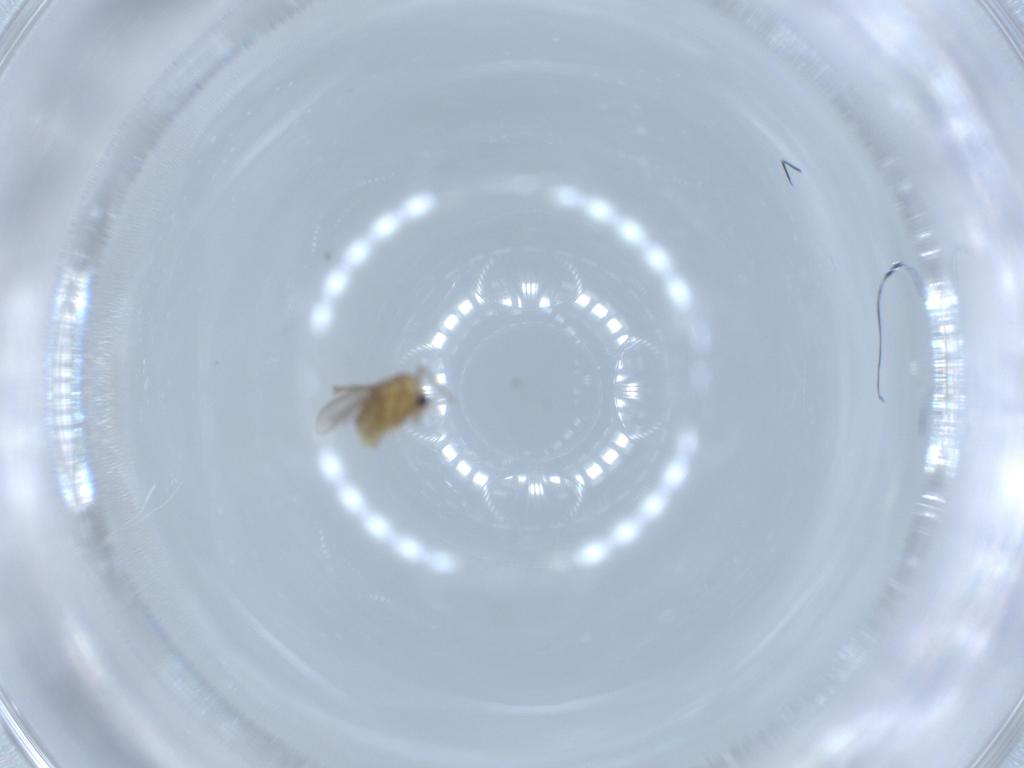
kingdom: Animalia
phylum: Arthropoda
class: Insecta
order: Diptera
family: Chironomidae
